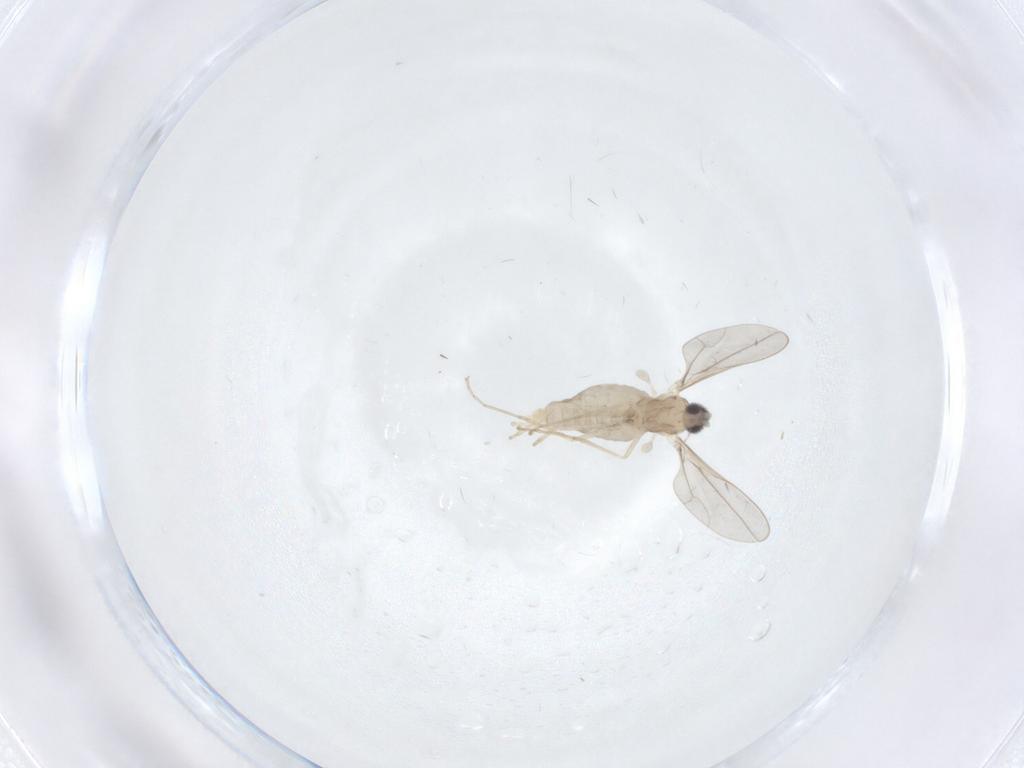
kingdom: Animalia
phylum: Arthropoda
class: Insecta
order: Diptera
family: Cecidomyiidae
